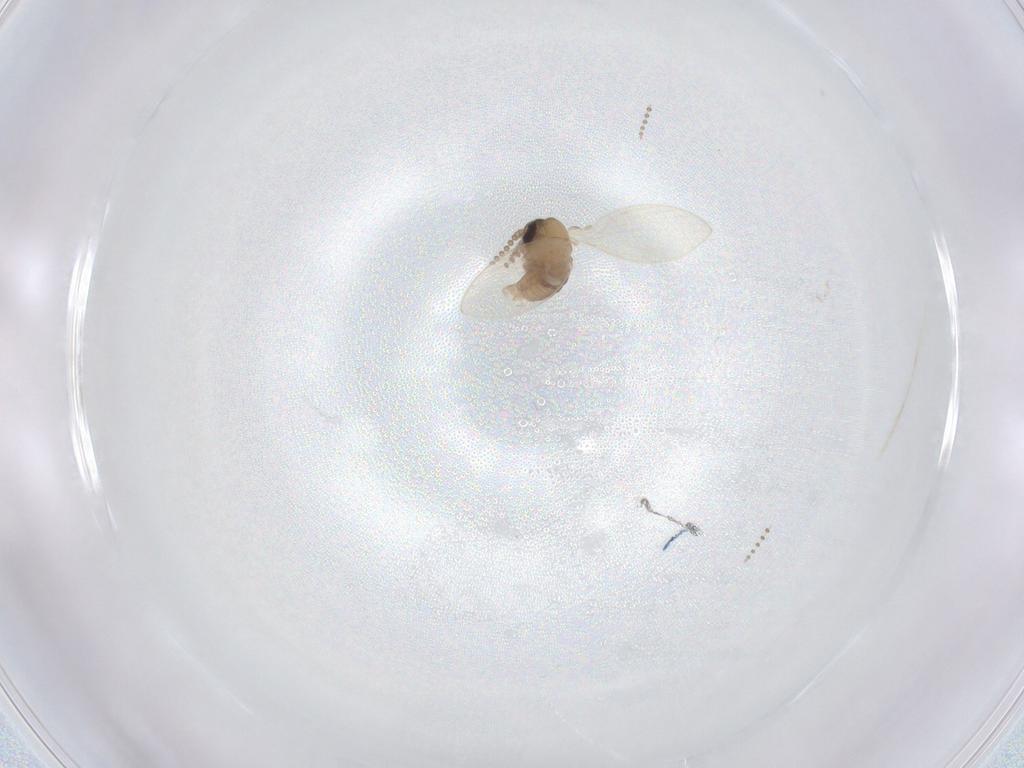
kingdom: Animalia
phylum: Arthropoda
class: Insecta
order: Diptera
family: Psychodidae
